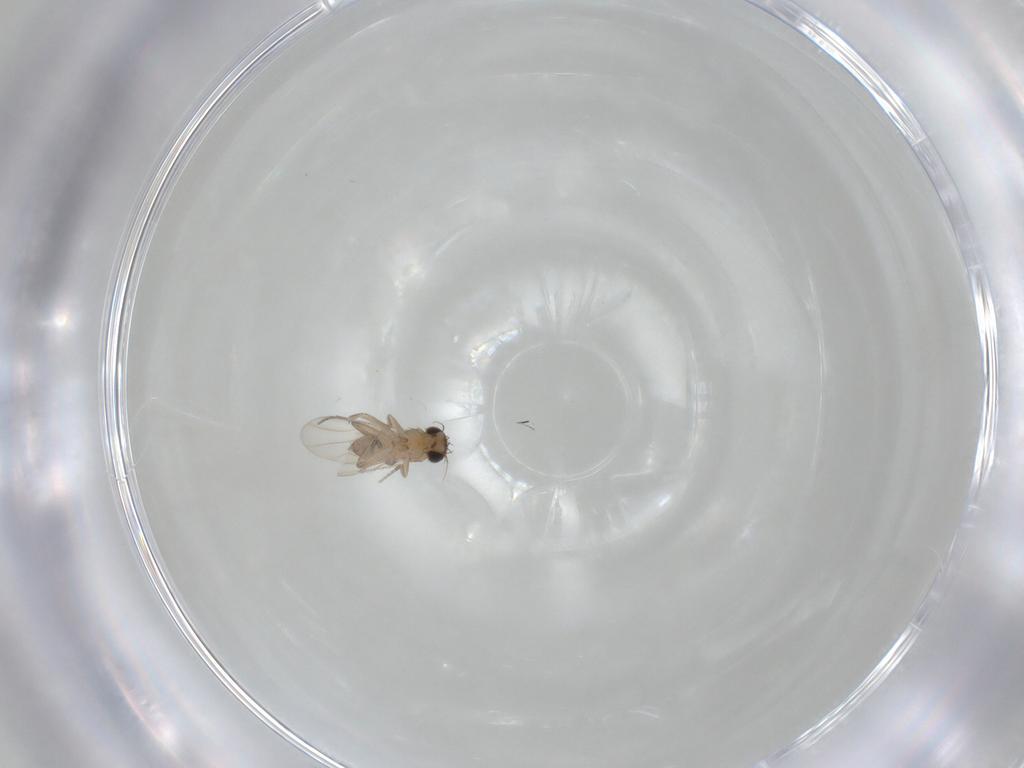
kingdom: Animalia
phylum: Arthropoda
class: Insecta
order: Diptera
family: Phoridae
